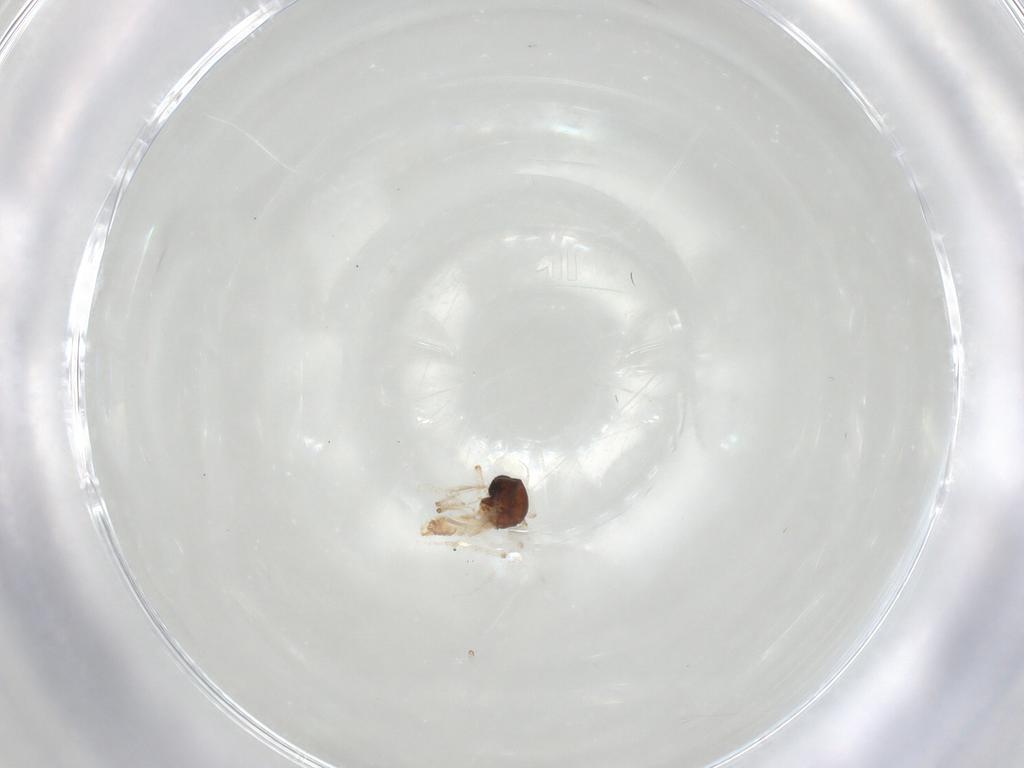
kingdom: Animalia
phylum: Arthropoda
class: Insecta
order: Diptera
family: Ceratopogonidae
